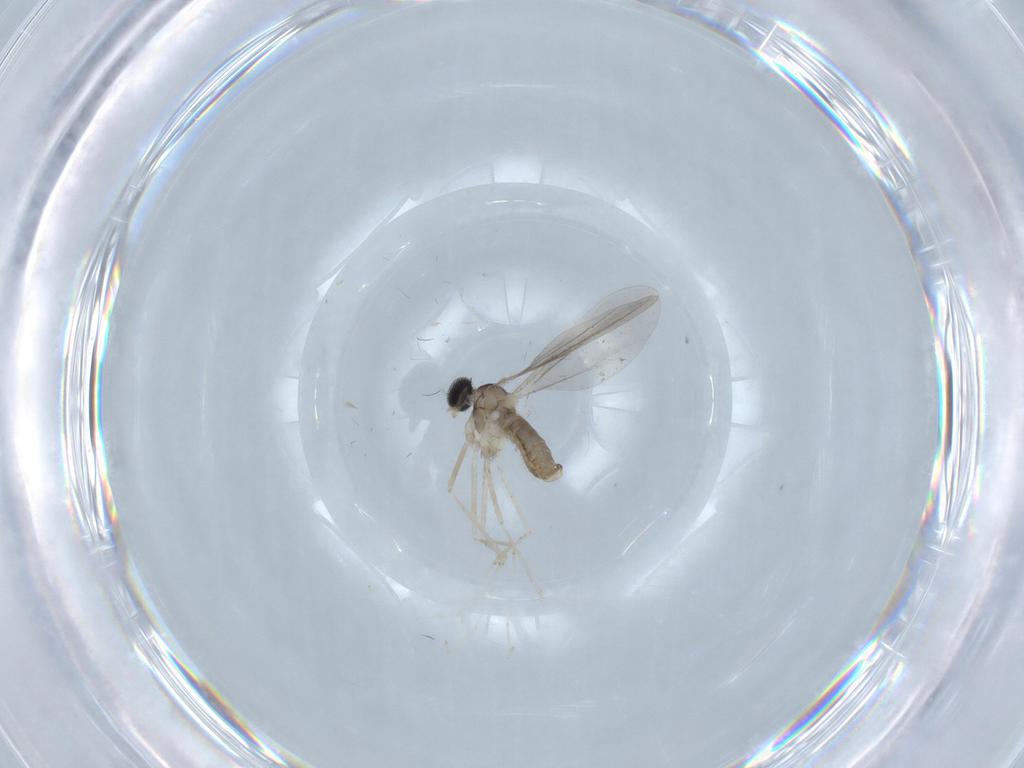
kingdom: Animalia
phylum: Arthropoda
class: Insecta
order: Diptera
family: Cecidomyiidae
